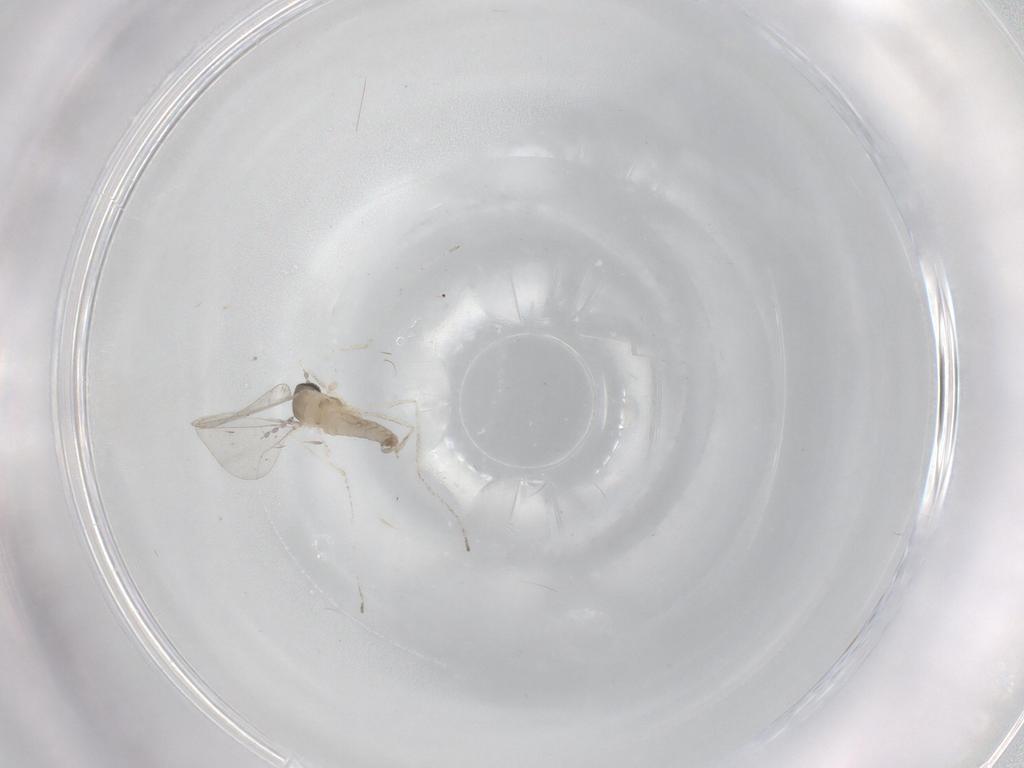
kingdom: Animalia
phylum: Arthropoda
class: Insecta
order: Diptera
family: Cecidomyiidae
